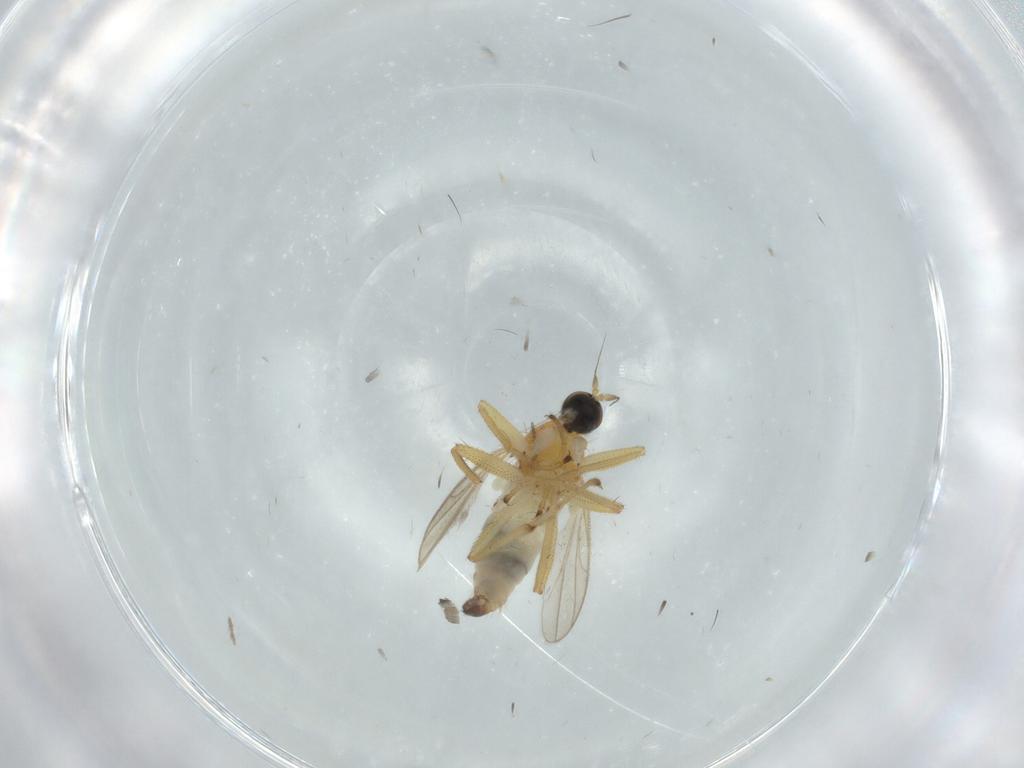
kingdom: Animalia
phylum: Arthropoda
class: Insecta
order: Diptera
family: Hybotidae
